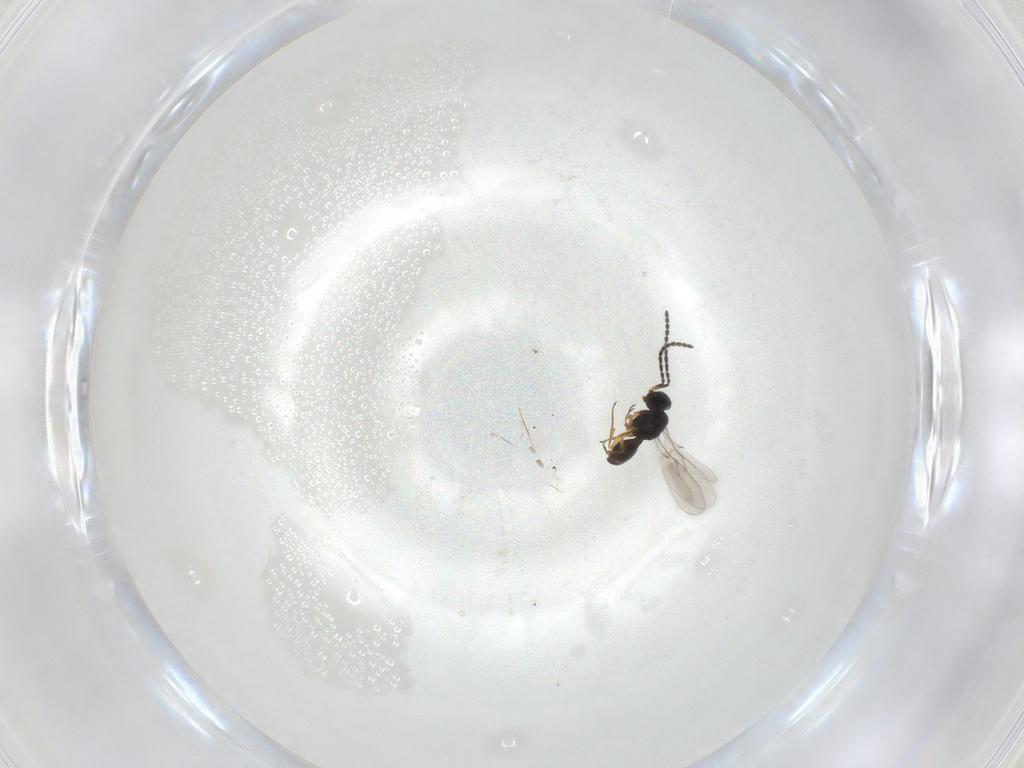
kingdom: Animalia
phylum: Arthropoda
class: Insecta
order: Hymenoptera
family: Scelionidae
